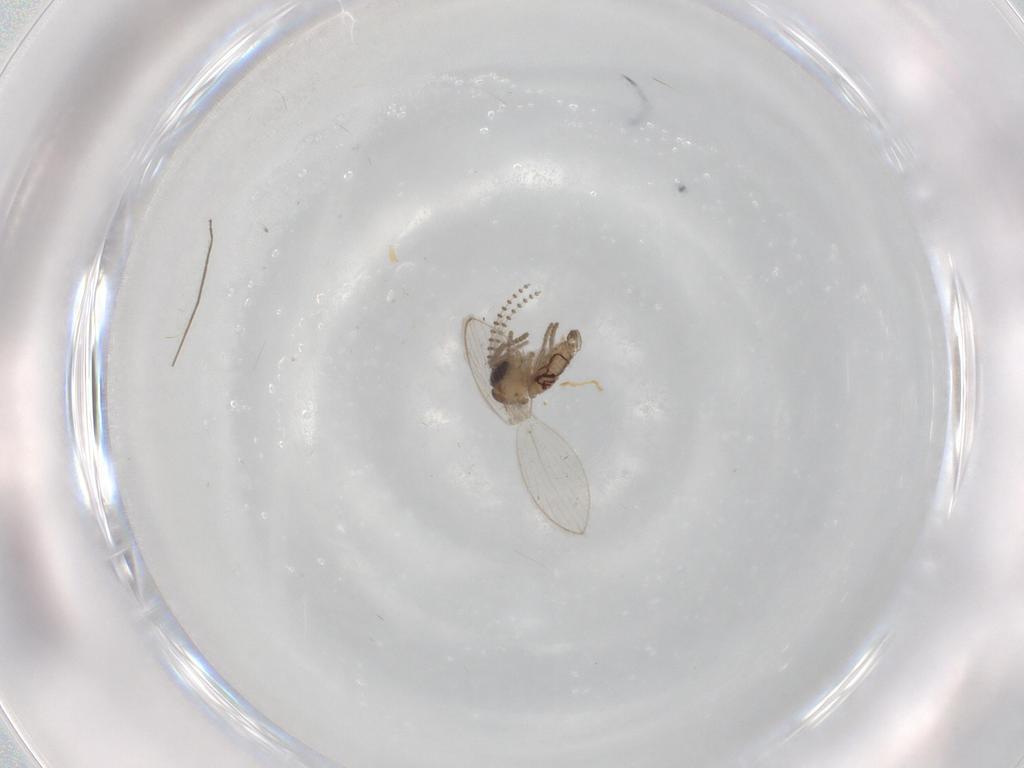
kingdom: Animalia
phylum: Arthropoda
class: Insecta
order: Diptera
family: Psychodidae
